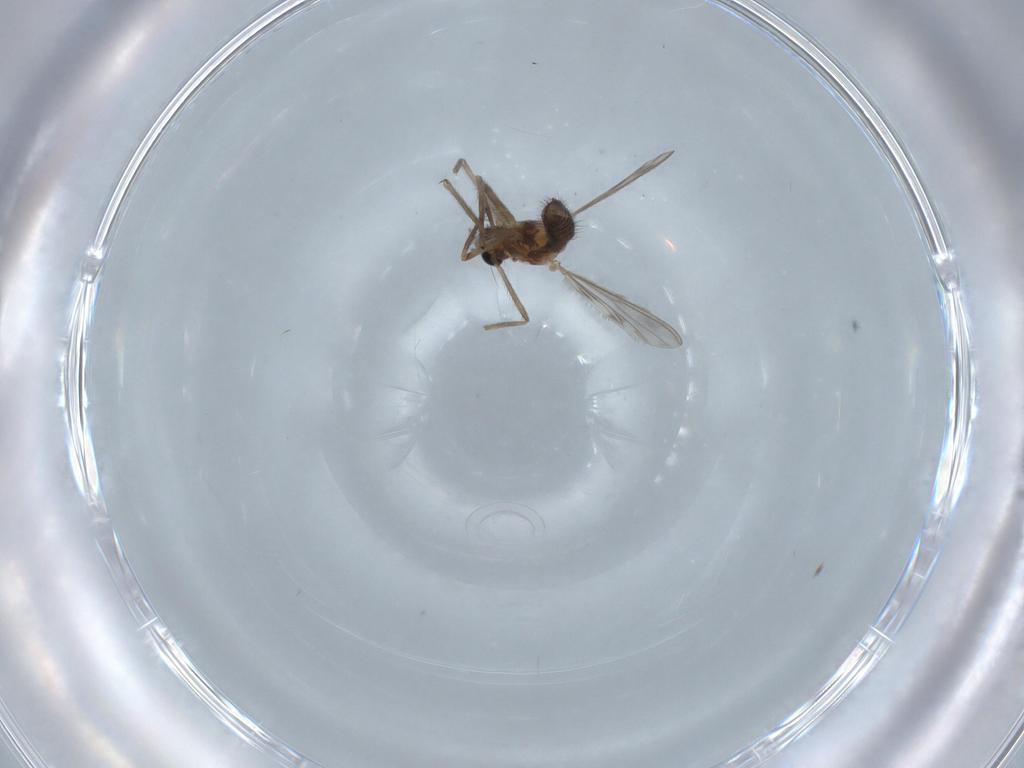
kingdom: Animalia
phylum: Arthropoda
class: Insecta
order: Diptera
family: Chironomidae
